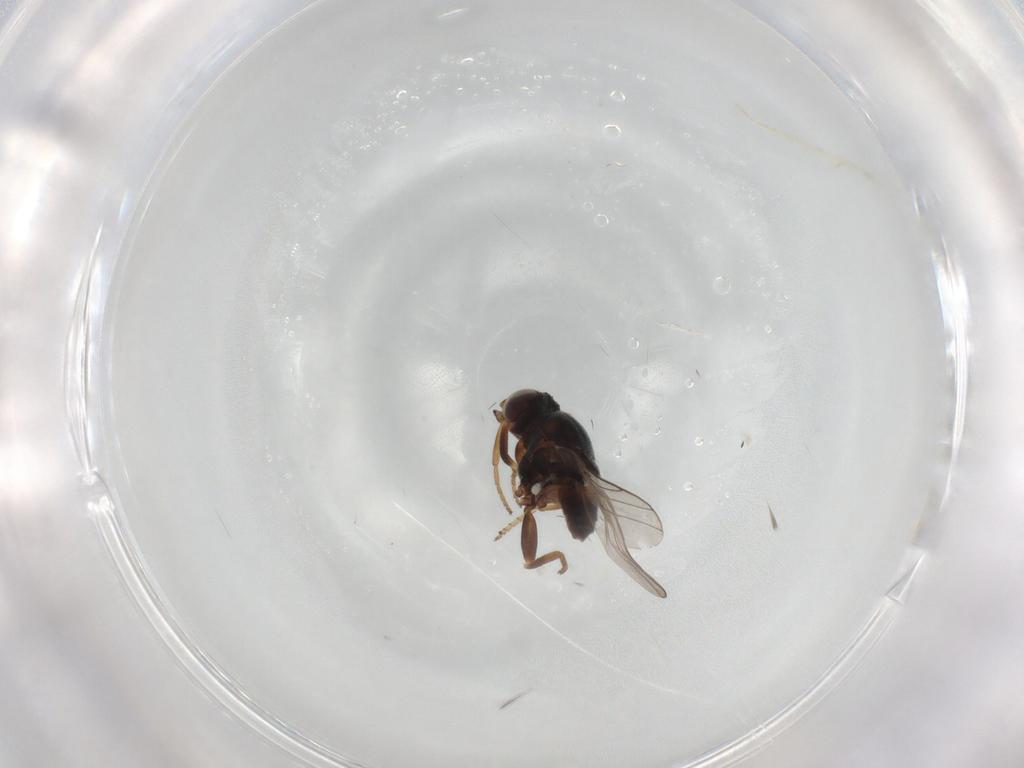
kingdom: Animalia
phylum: Arthropoda
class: Insecta
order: Diptera
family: Chloropidae
